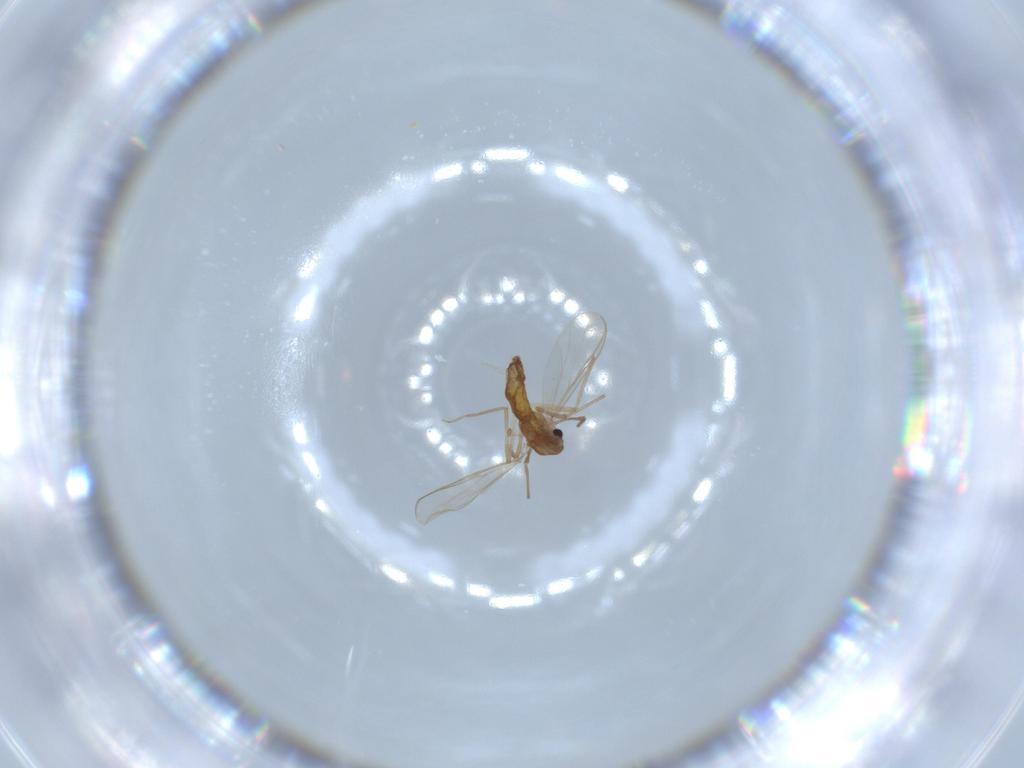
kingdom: Animalia
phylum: Arthropoda
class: Insecta
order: Diptera
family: Chironomidae
